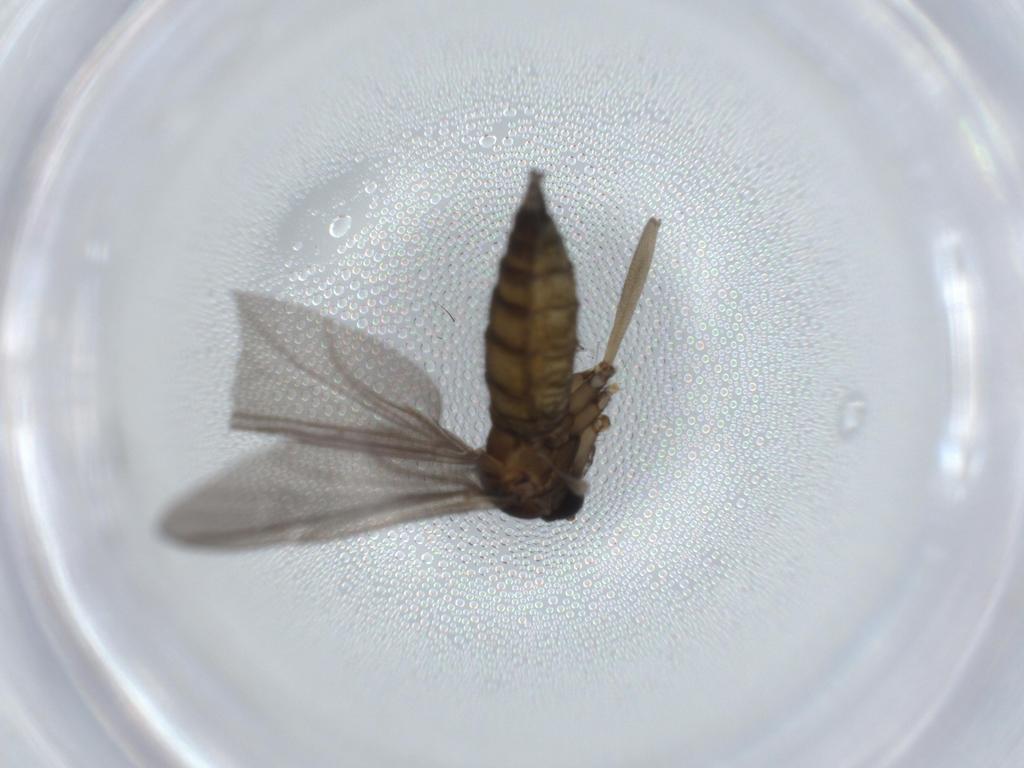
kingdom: Animalia
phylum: Arthropoda
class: Insecta
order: Diptera
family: Sciaridae
